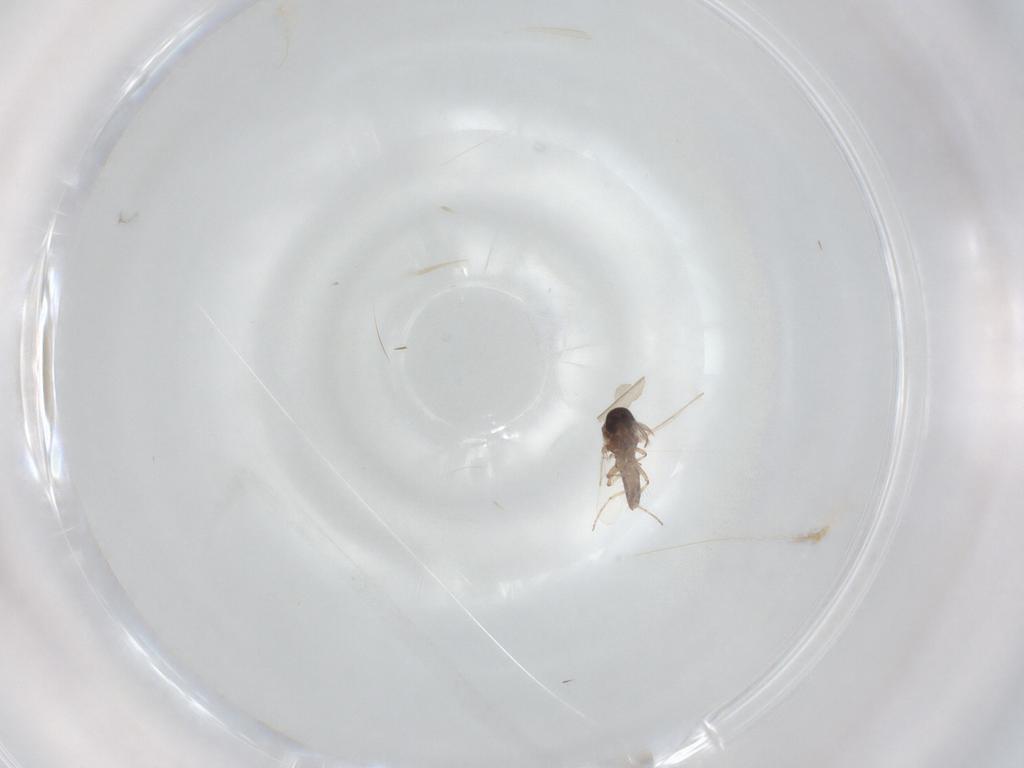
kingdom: Animalia
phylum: Arthropoda
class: Insecta
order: Diptera
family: Ceratopogonidae
